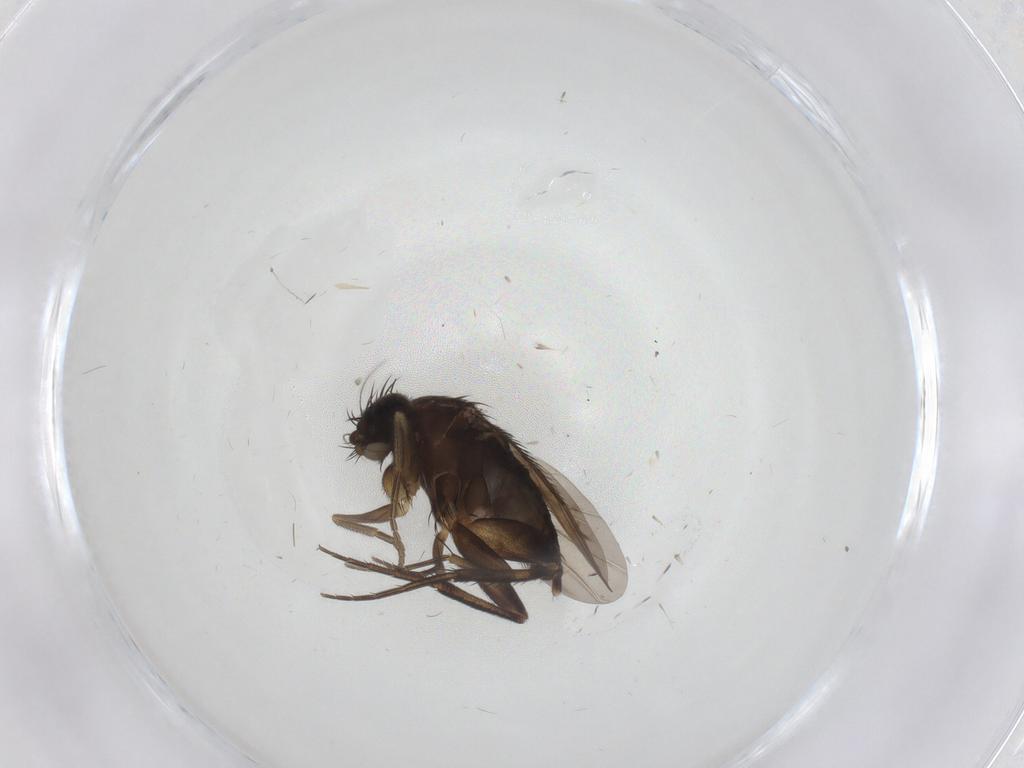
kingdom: Animalia
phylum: Arthropoda
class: Insecta
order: Diptera
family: Phoridae
